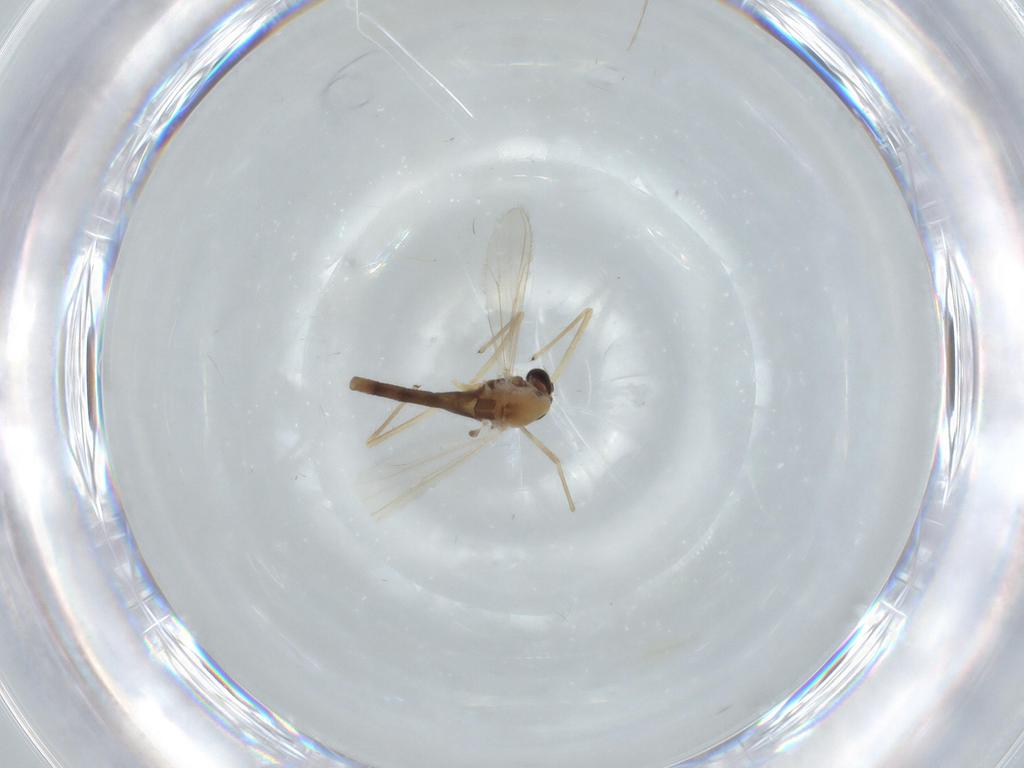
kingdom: Animalia
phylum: Arthropoda
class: Insecta
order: Diptera
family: Chironomidae
